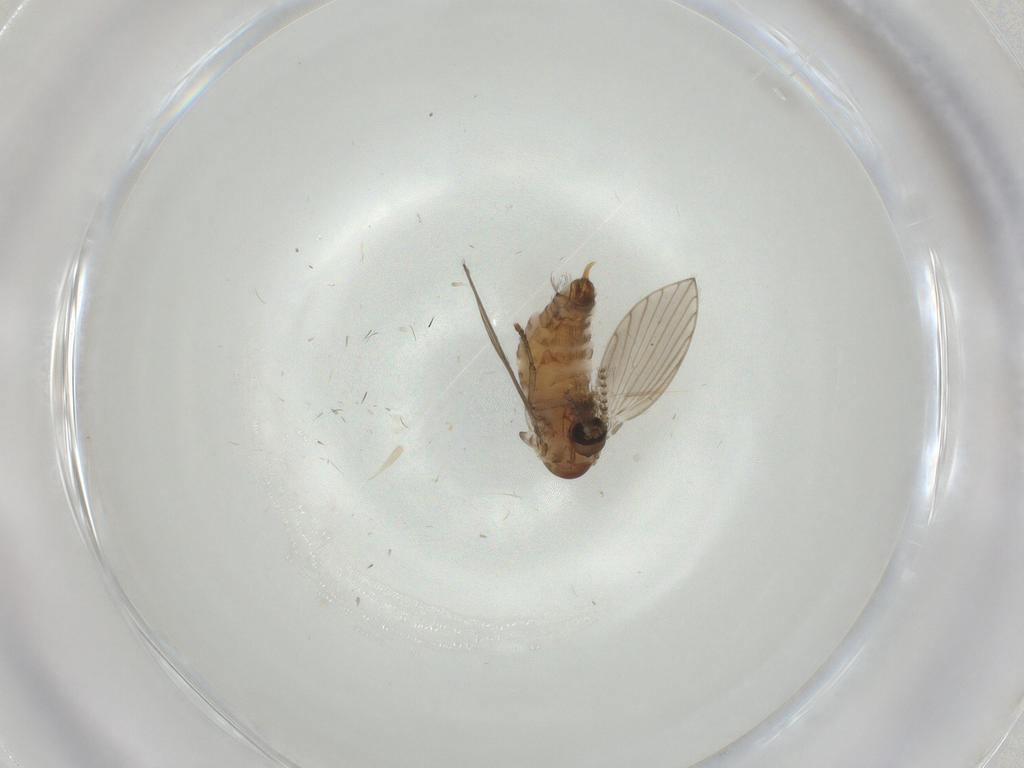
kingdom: Animalia
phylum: Arthropoda
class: Insecta
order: Diptera
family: Psychodidae
